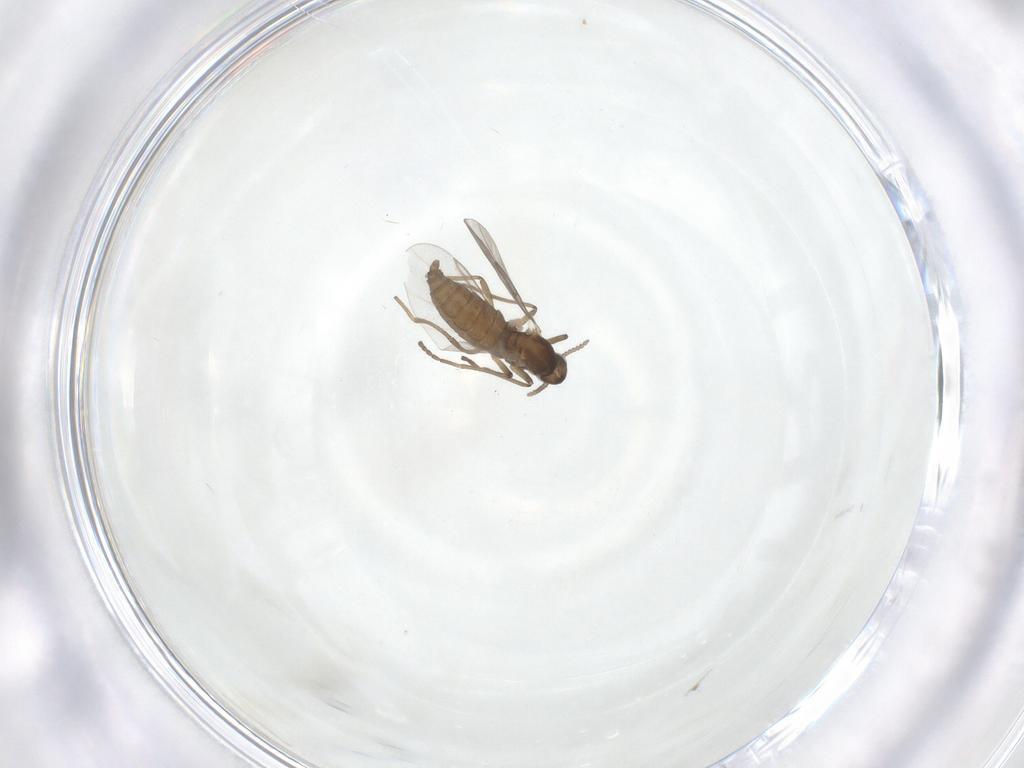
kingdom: Animalia
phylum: Arthropoda
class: Insecta
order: Diptera
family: Cecidomyiidae
